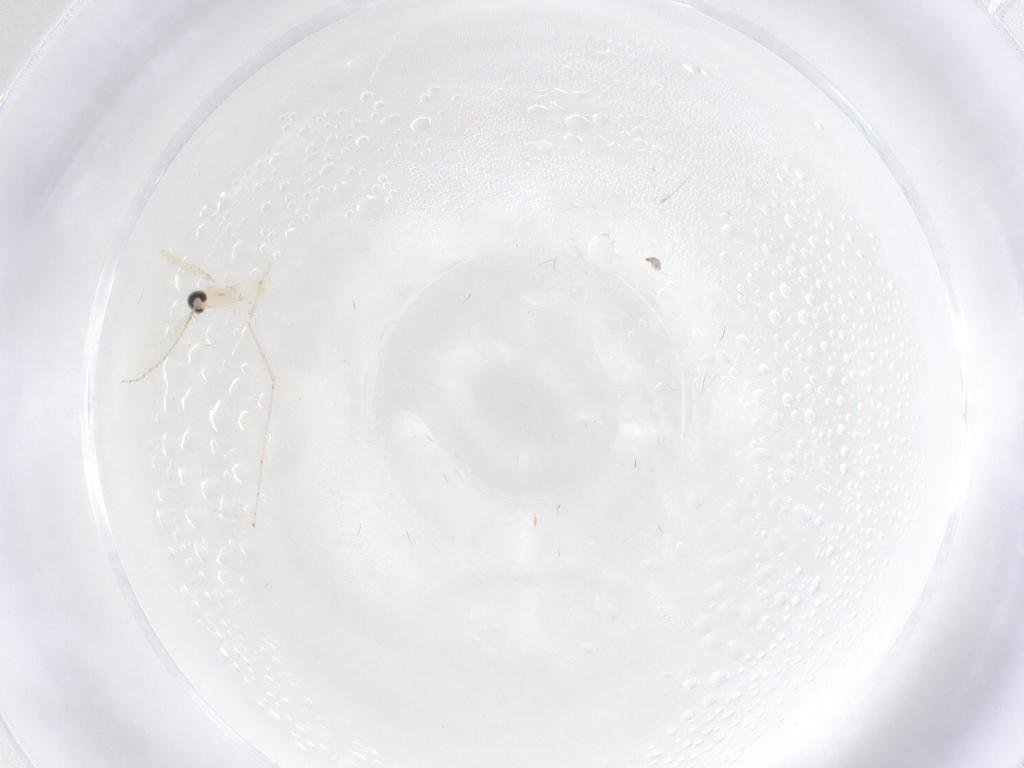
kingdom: Animalia
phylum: Arthropoda
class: Insecta
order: Diptera
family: Cecidomyiidae
